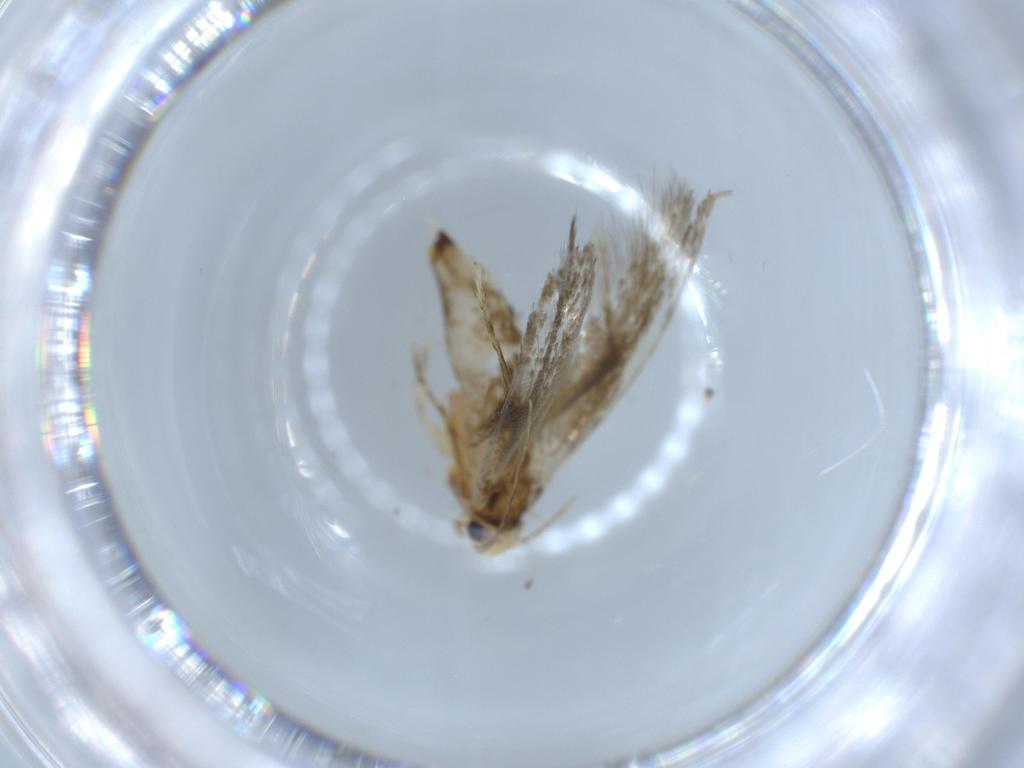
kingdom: Animalia
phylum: Arthropoda
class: Insecta
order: Lepidoptera
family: Tineidae
